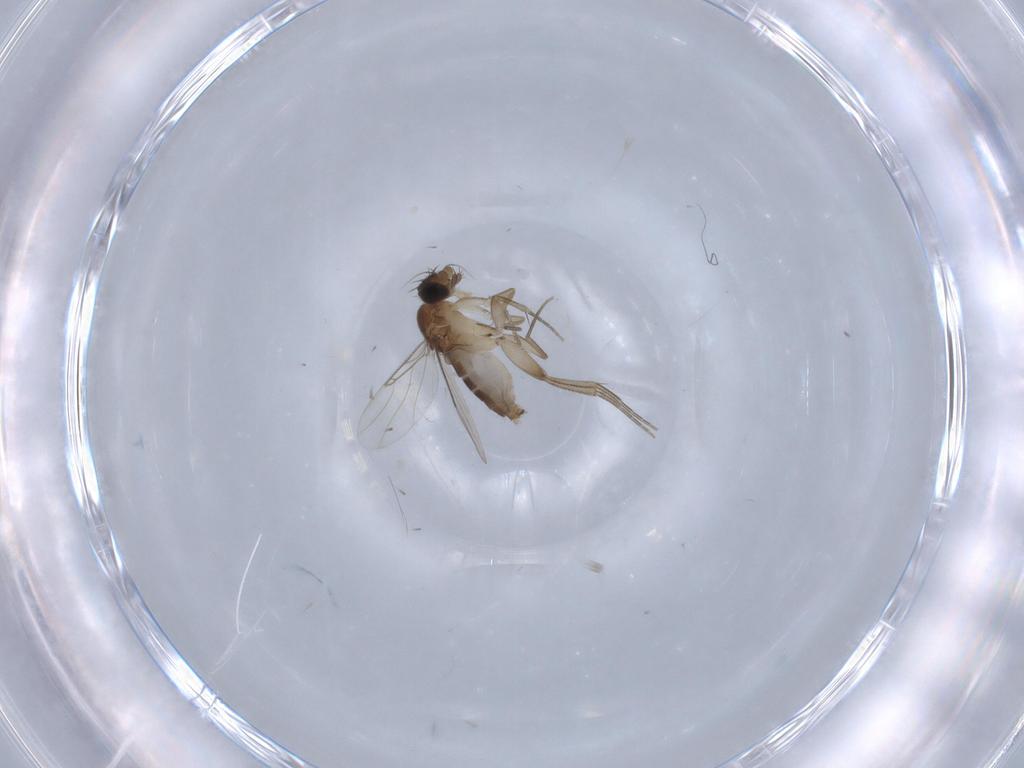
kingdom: Animalia
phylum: Arthropoda
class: Insecta
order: Diptera
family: Phoridae
